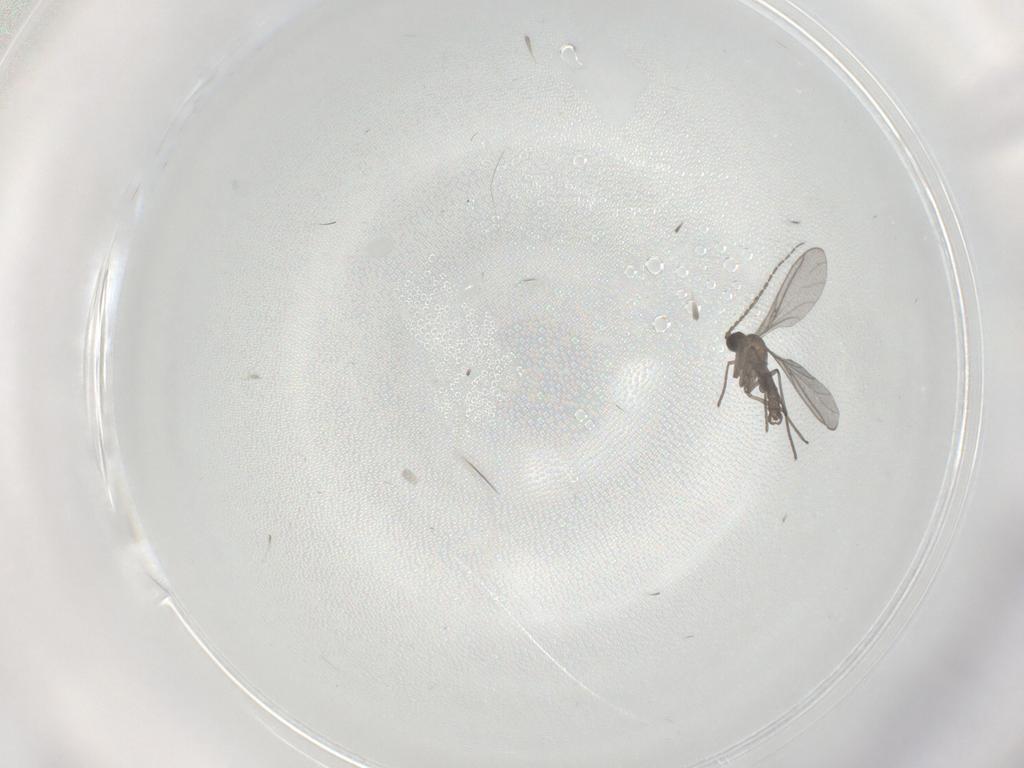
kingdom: Animalia
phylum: Arthropoda
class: Insecta
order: Diptera
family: Sciaridae
